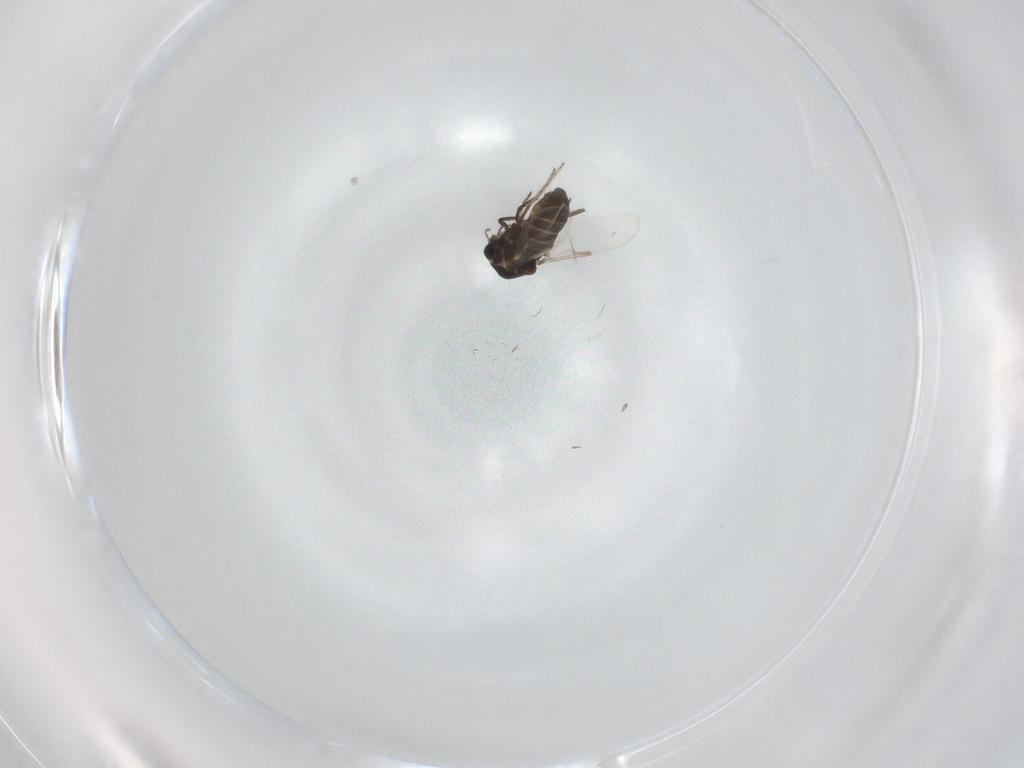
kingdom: Animalia
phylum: Arthropoda
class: Insecta
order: Diptera
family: Ceratopogonidae
